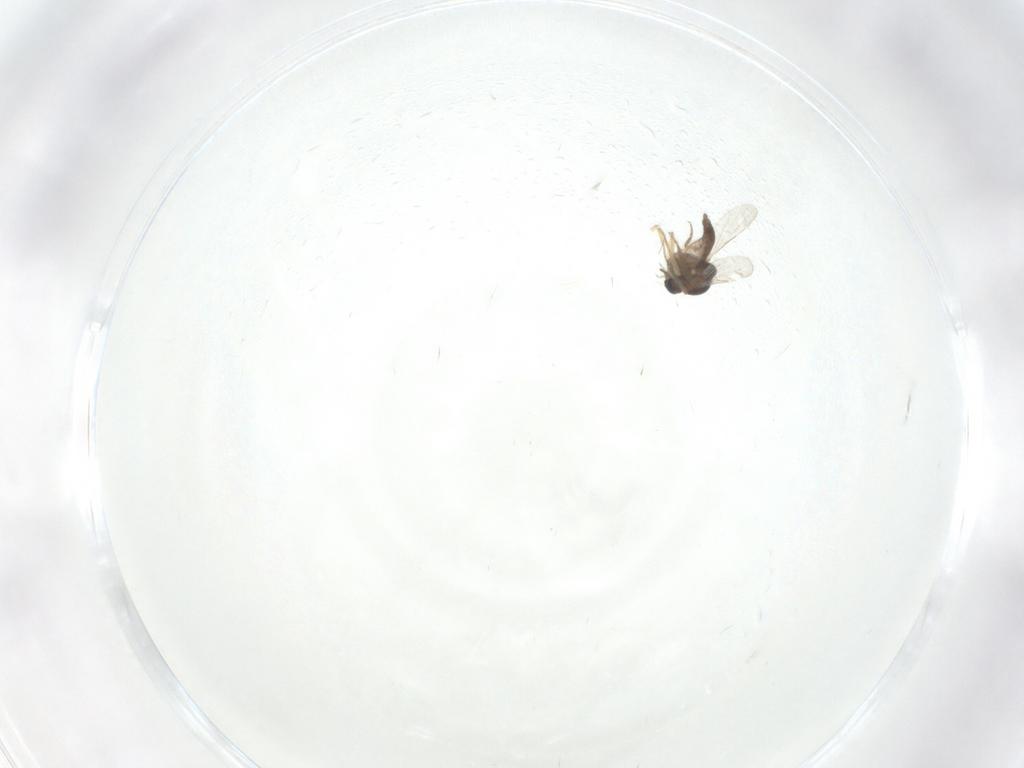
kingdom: Animalia
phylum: Arthropoda
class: Insecta
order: Diptera
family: Ceratopogonidae
